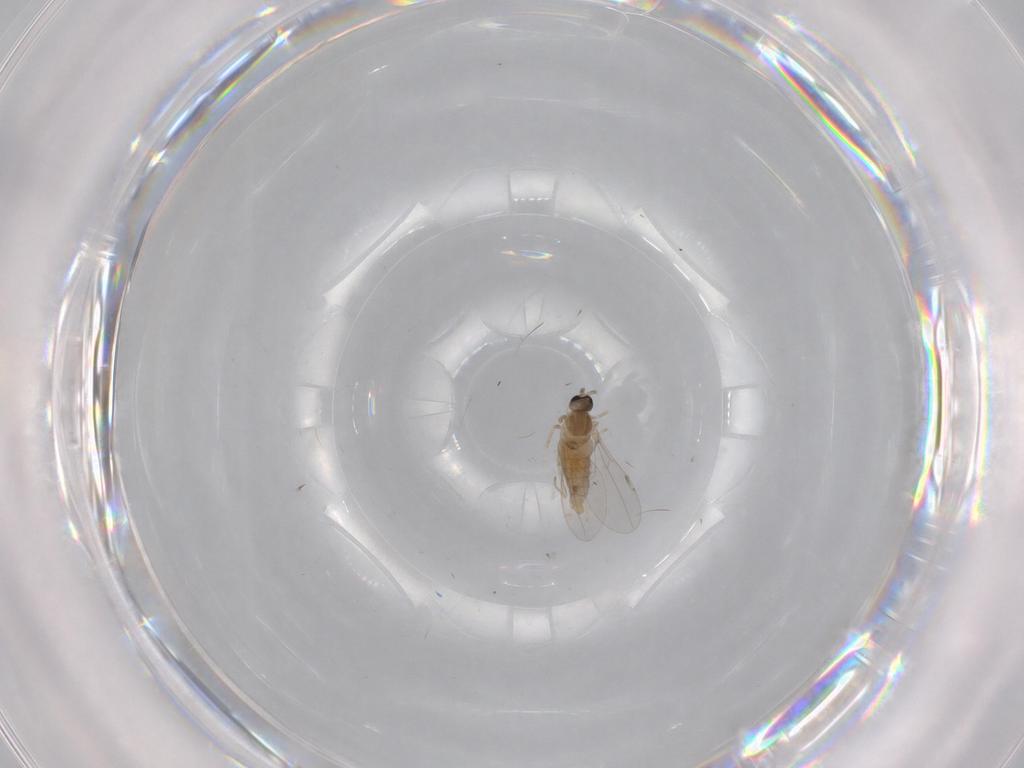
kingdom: Animalia
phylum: Arthropoda
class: Insecta
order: Diptera
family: Cecidomyiidae
